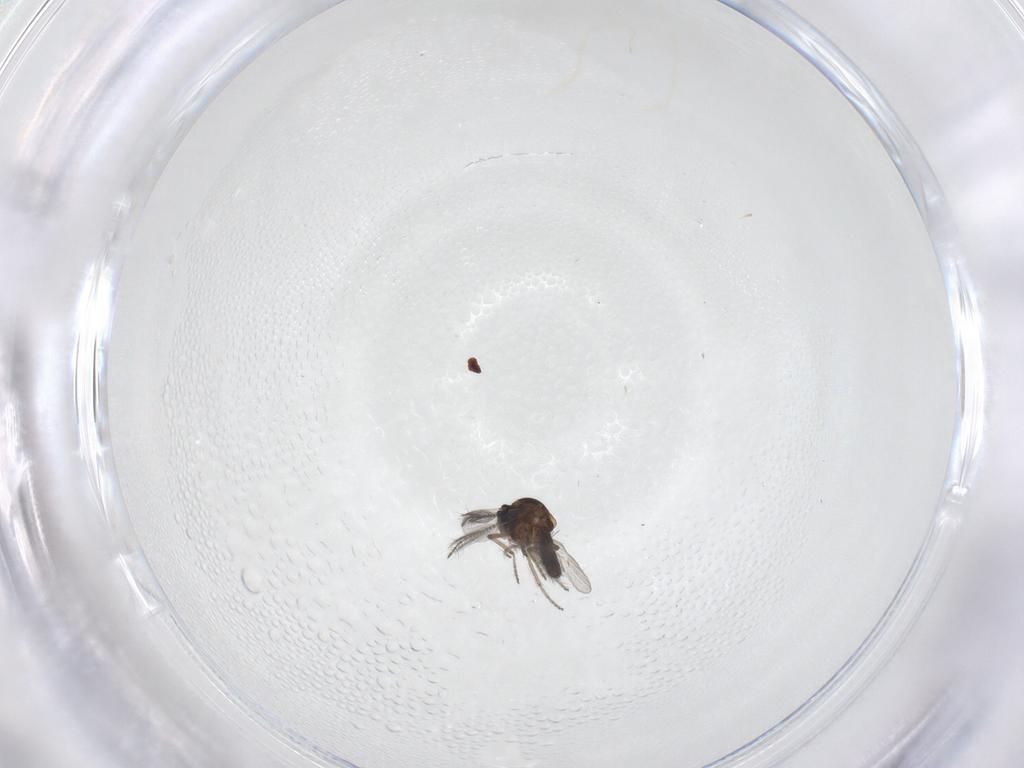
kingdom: Animalia
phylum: Arthropoda
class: Insecta
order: Diptera
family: Ceratopogonidae
